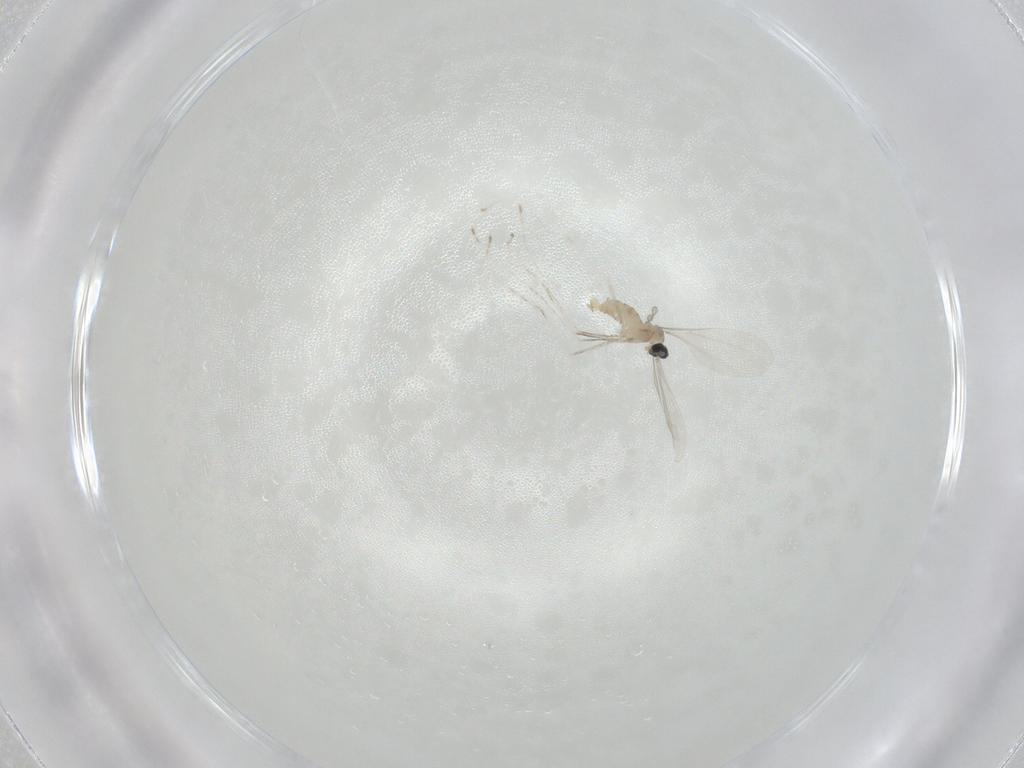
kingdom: Animalia
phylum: Arthropoda
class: Insecta
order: Diptera
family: Cecidomyiidae
